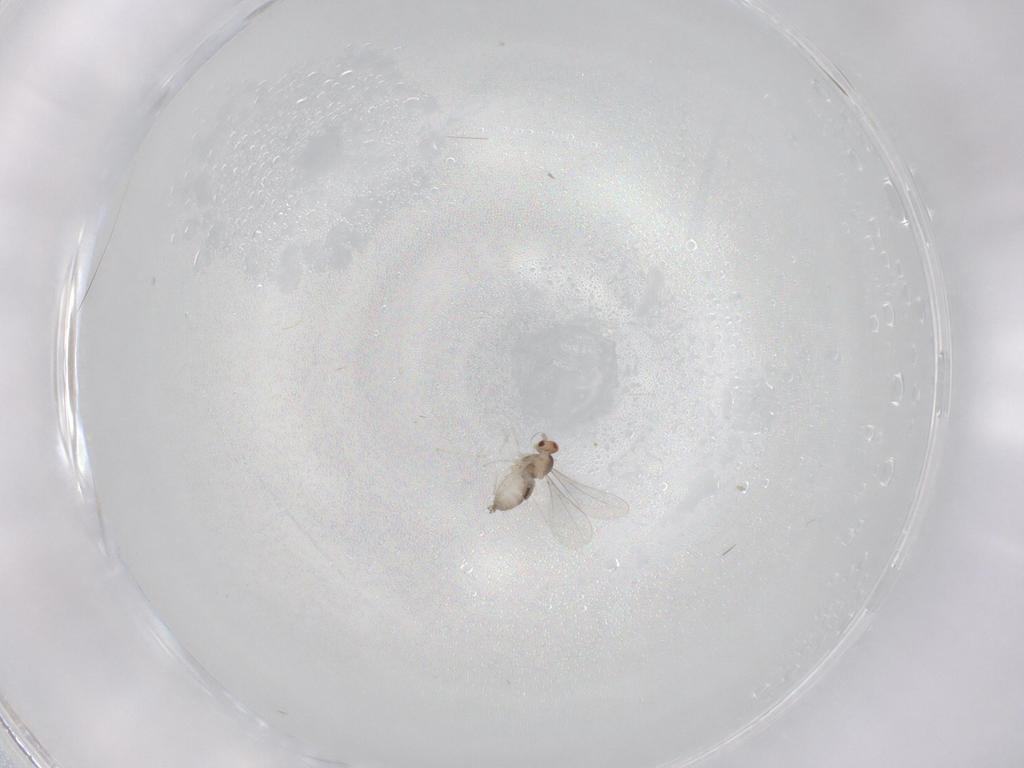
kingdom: Animalia
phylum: Arthropoda
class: Insecta
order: Diptera
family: Cecidomyiidae
